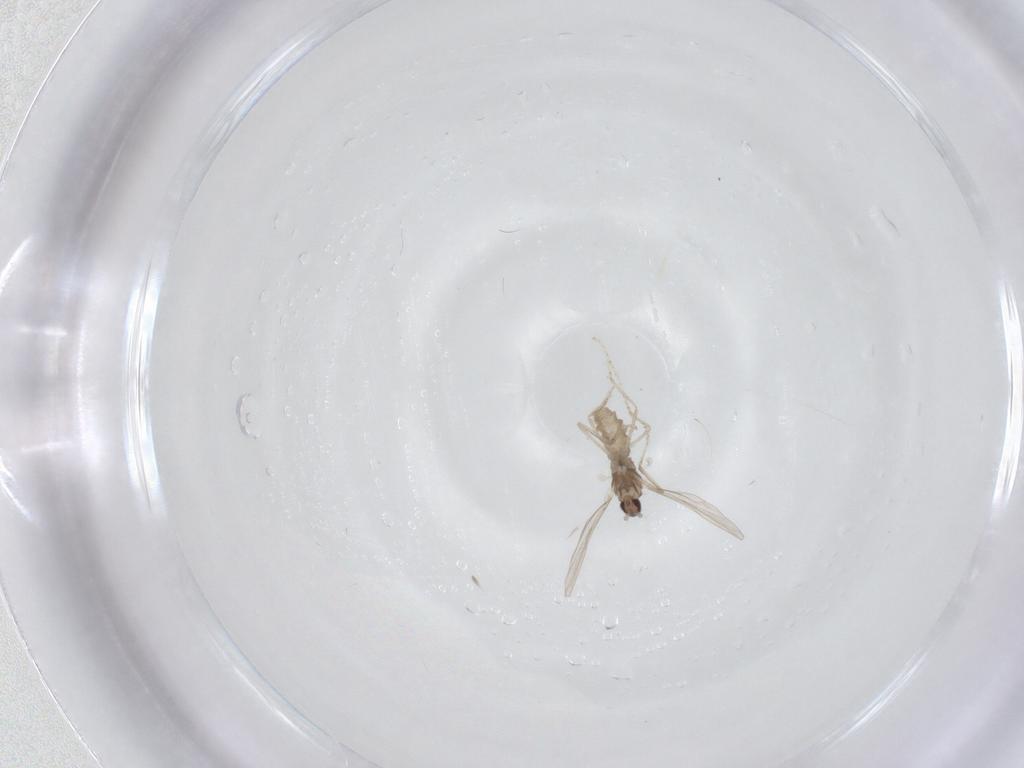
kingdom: Animalia
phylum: Arthropoda
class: Insecta
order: Diptera
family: Cecidomyiidae
